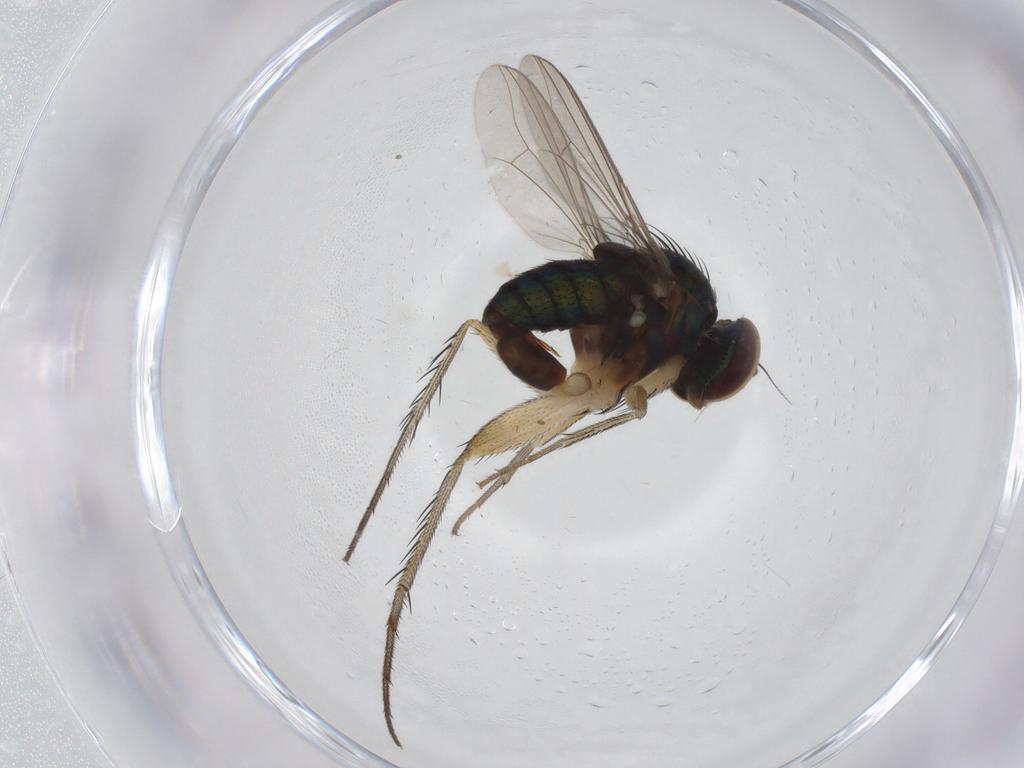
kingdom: Animalia
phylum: Arthropoda
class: Insecta
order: Diptera
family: Dolichopodidae
